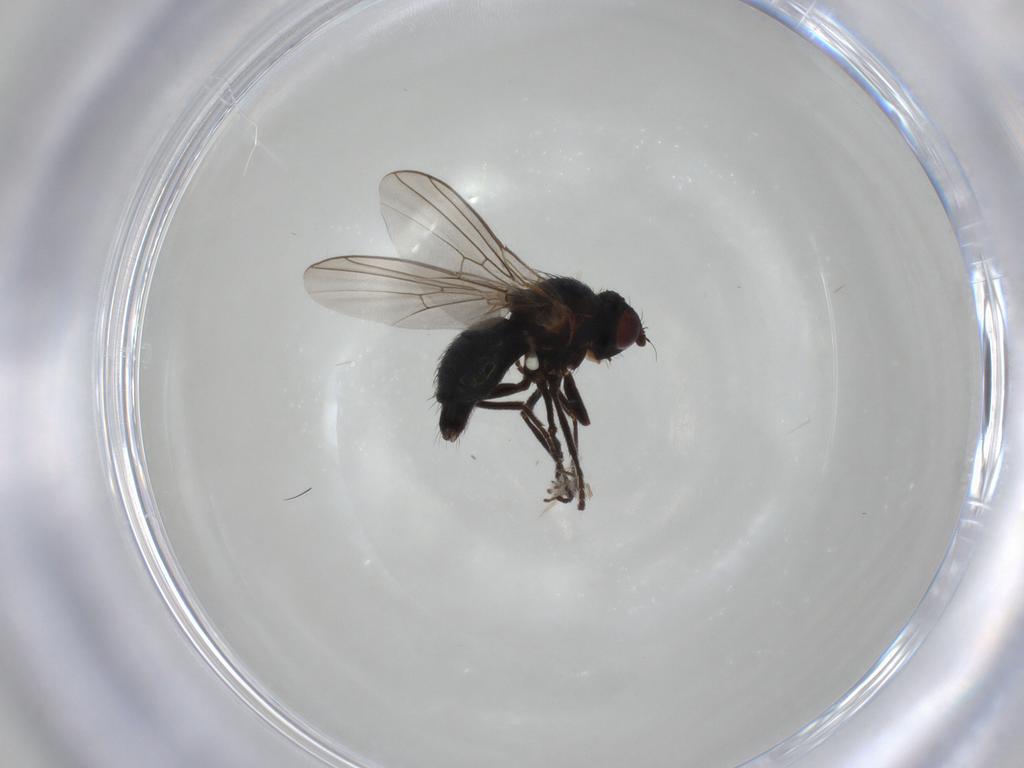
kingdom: Animalia
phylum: Arthropoda
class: Insecta
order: Diptera
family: Agromyzidae
